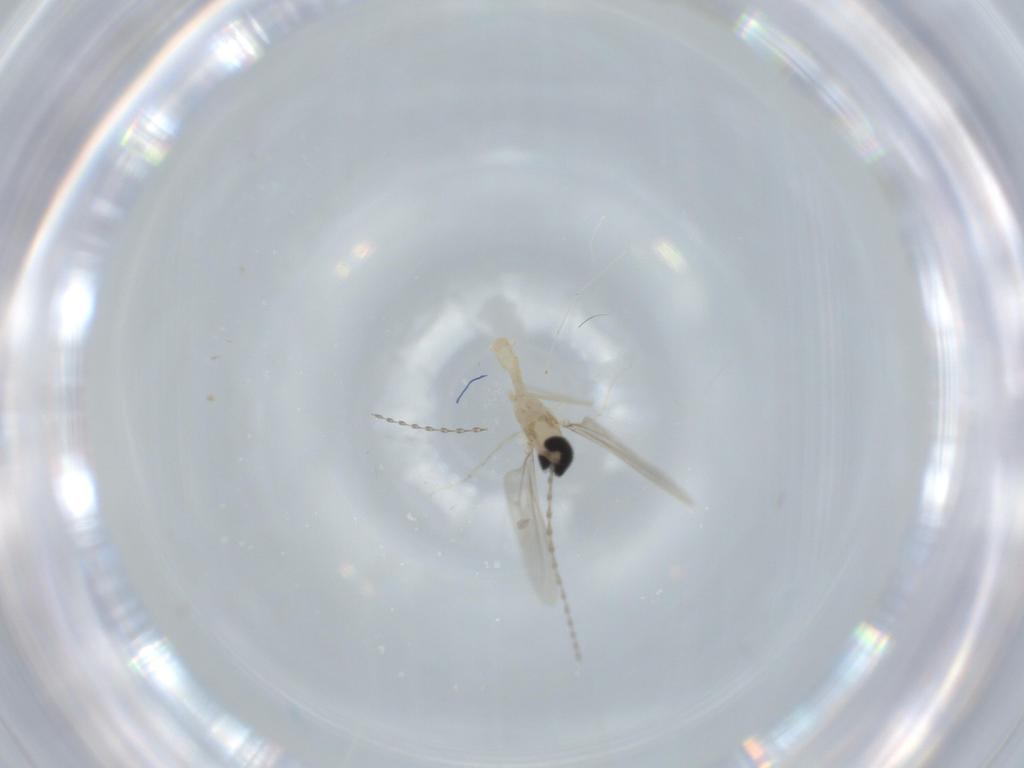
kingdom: Animalia
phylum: Arthropoda
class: Insecta
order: Diptera
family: Cecidomyiidae
